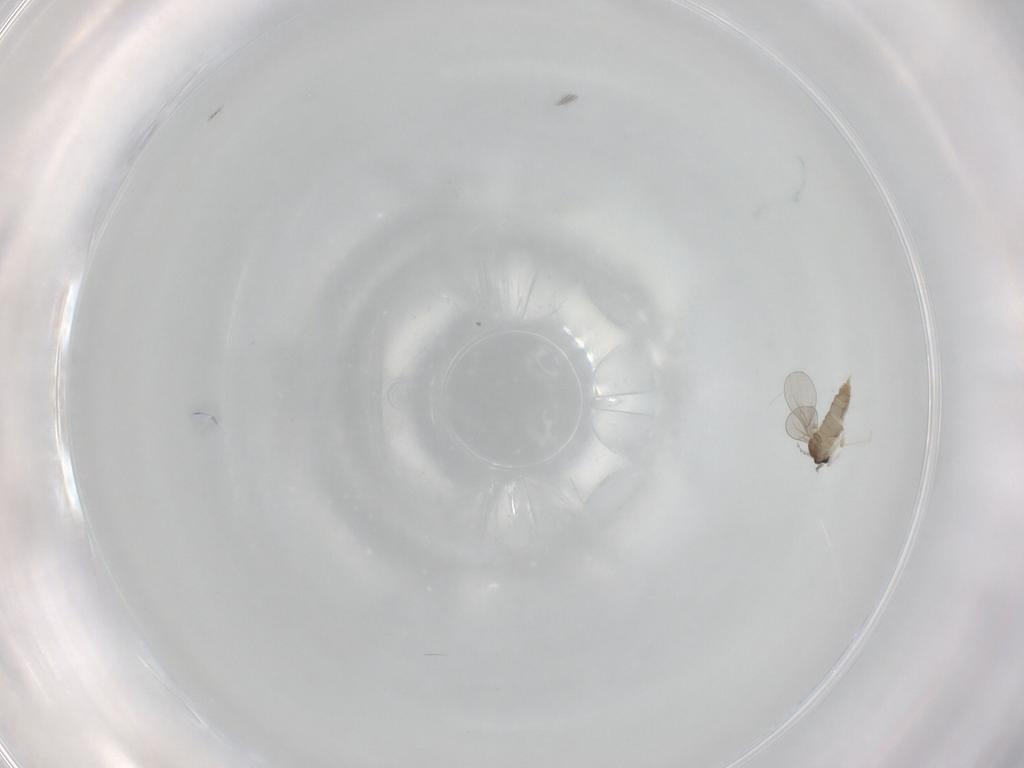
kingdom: Animalia
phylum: Arthropoda
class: Insecta
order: Diptera
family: Cecidomyiidae
